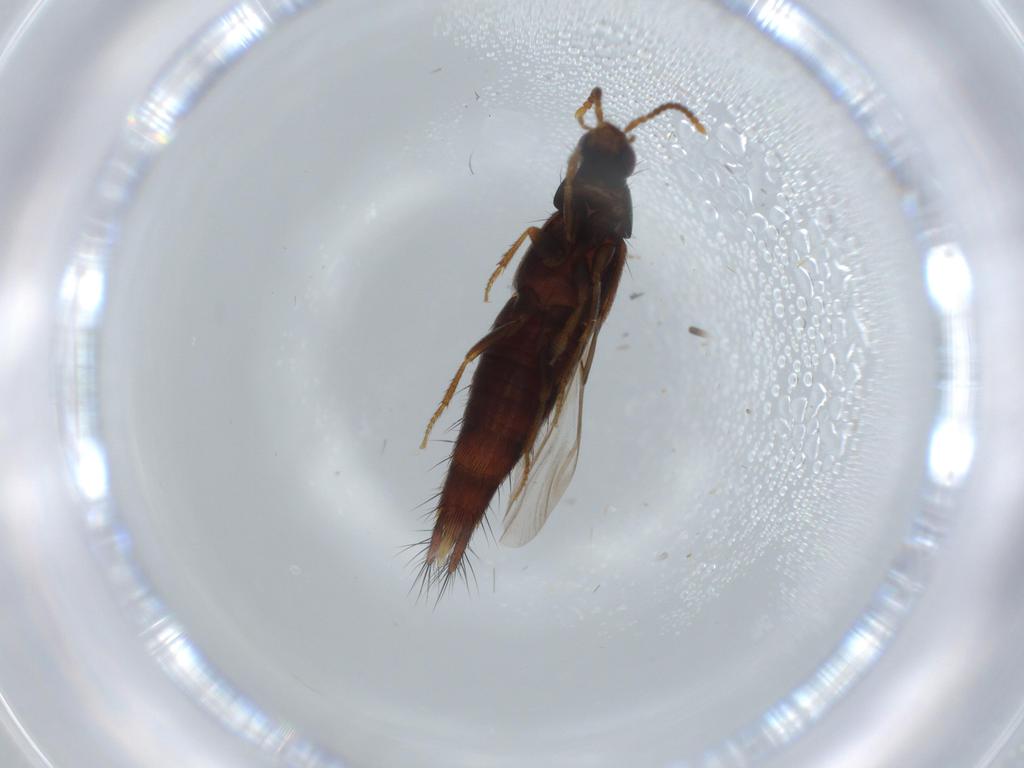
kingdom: Animalia
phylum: Arthropoda
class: Insecta
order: Coleoptera
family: Staphylinidae
